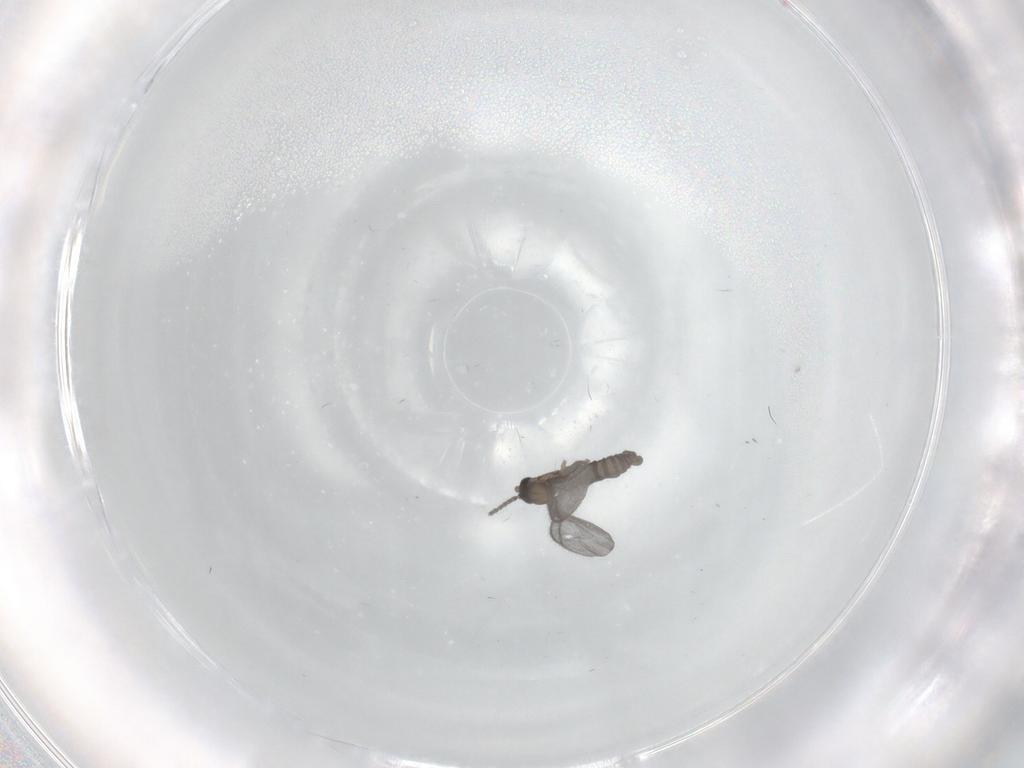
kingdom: Animalia
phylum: Arthropoda
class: Insecta
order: Diptera
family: Sciaridae
